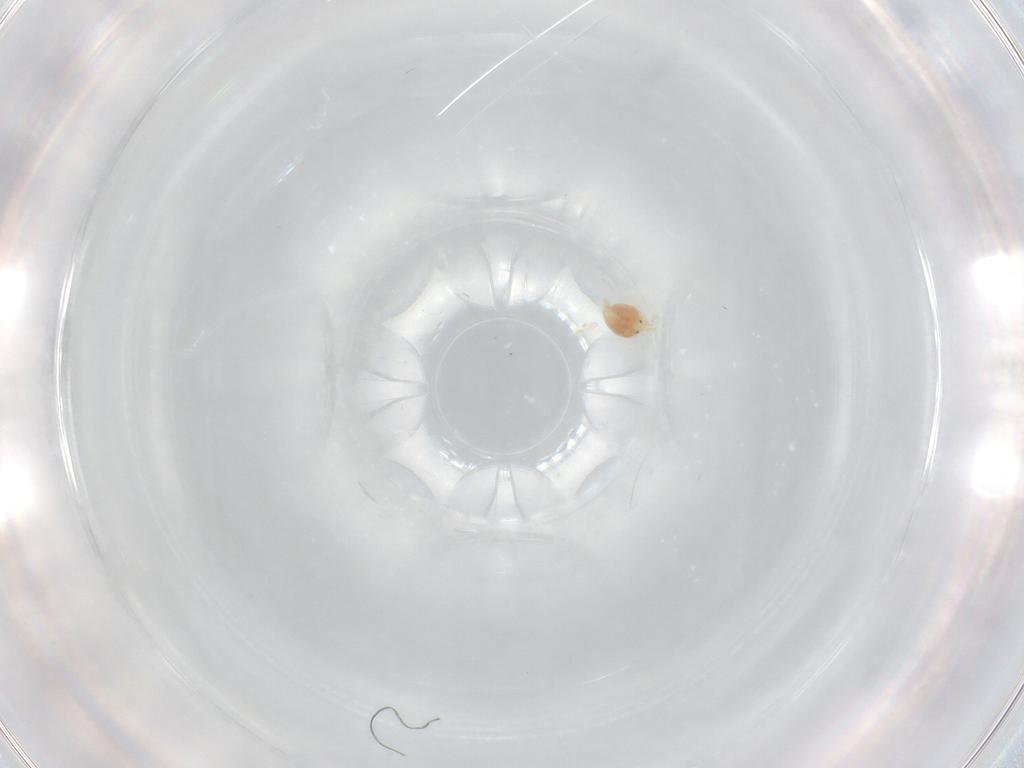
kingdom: Animalia
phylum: Arthropoda
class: Arachnida
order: Trombidiformes
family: Hygrobatidae
